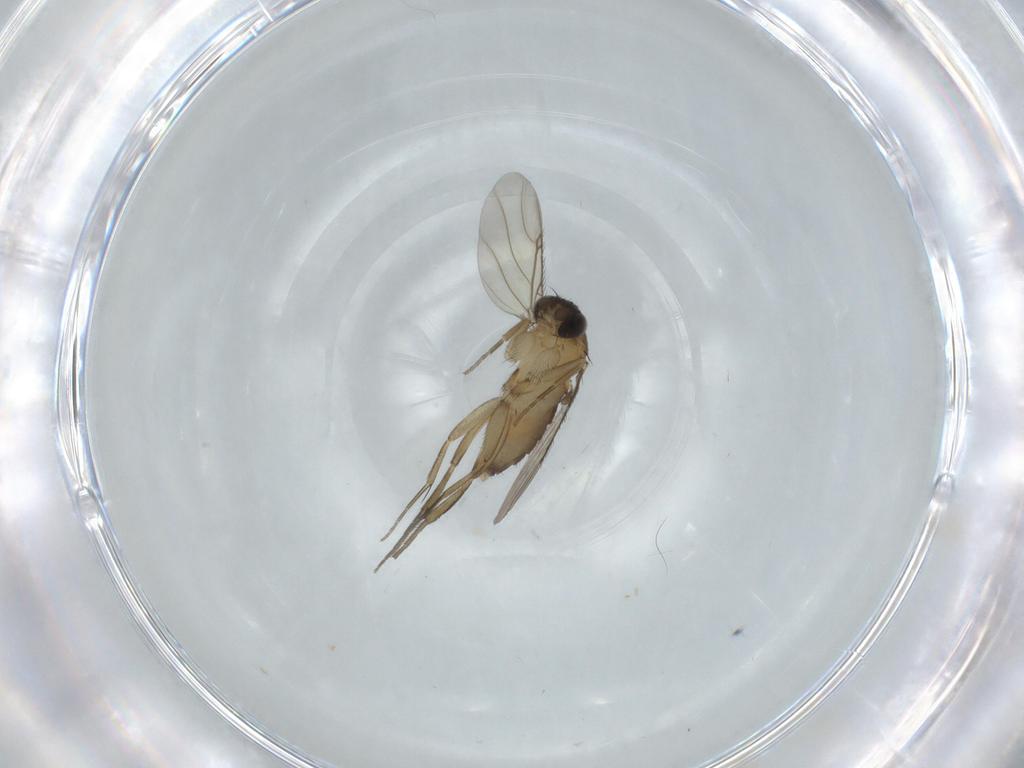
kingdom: Animalia
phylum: Arthropoda
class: Insecta
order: Diptera
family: Phoridae
